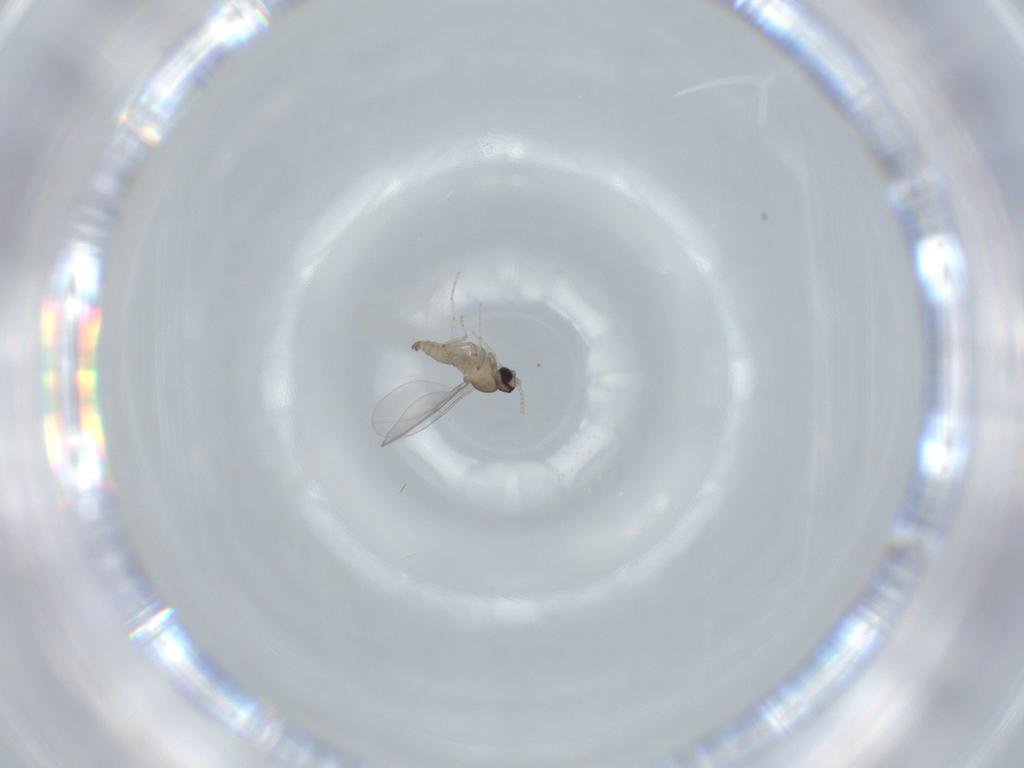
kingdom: Animalia
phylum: Arthropoda
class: Insecta
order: Diptera
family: Cecidomyiidae
